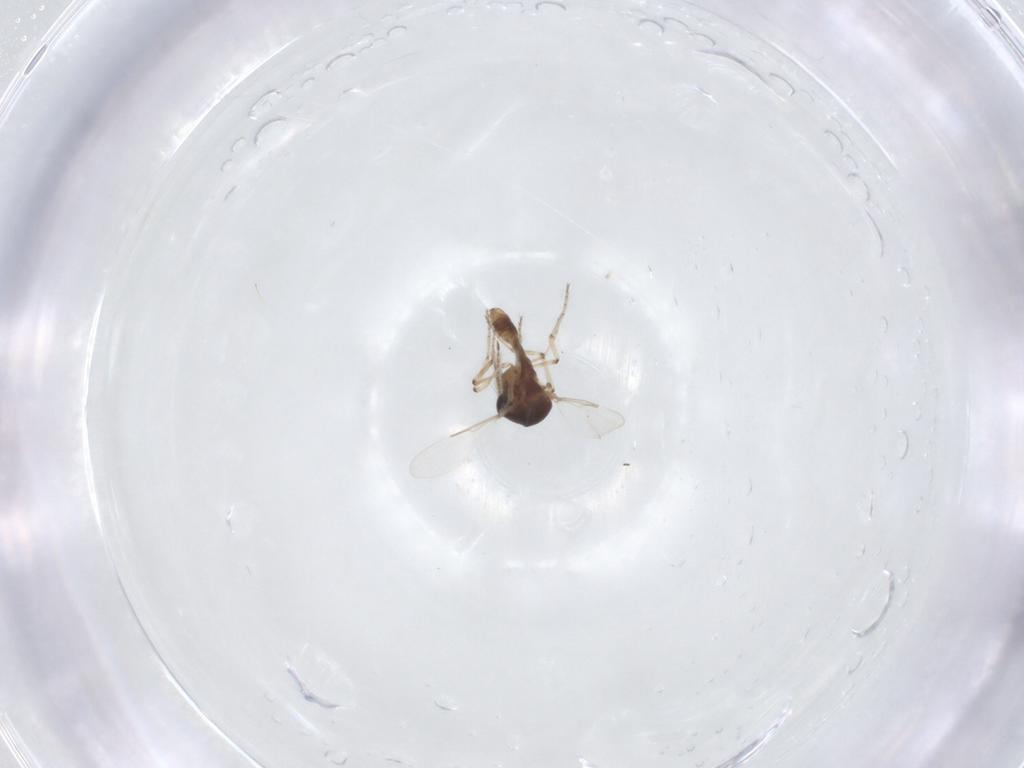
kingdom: Animalia
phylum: Arthropoda
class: Insecta
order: Diptera
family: Ceratopogonidae
